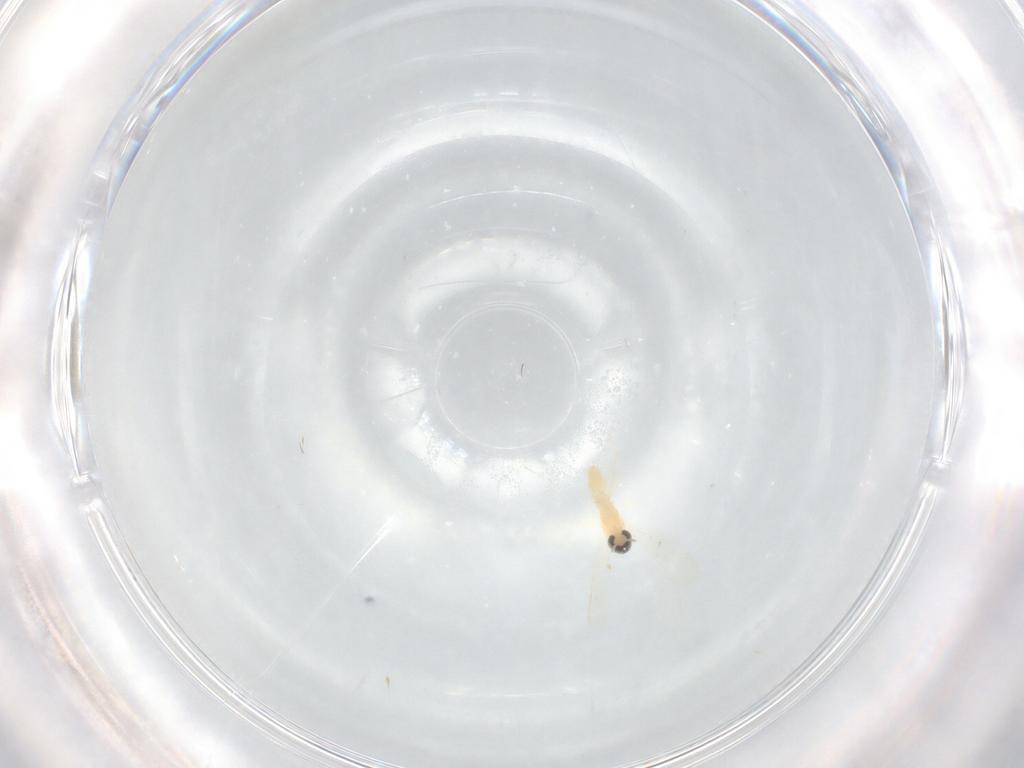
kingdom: Animalia
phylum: Arthropoda
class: Insecta
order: Diptera
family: Cecidomyiidae
